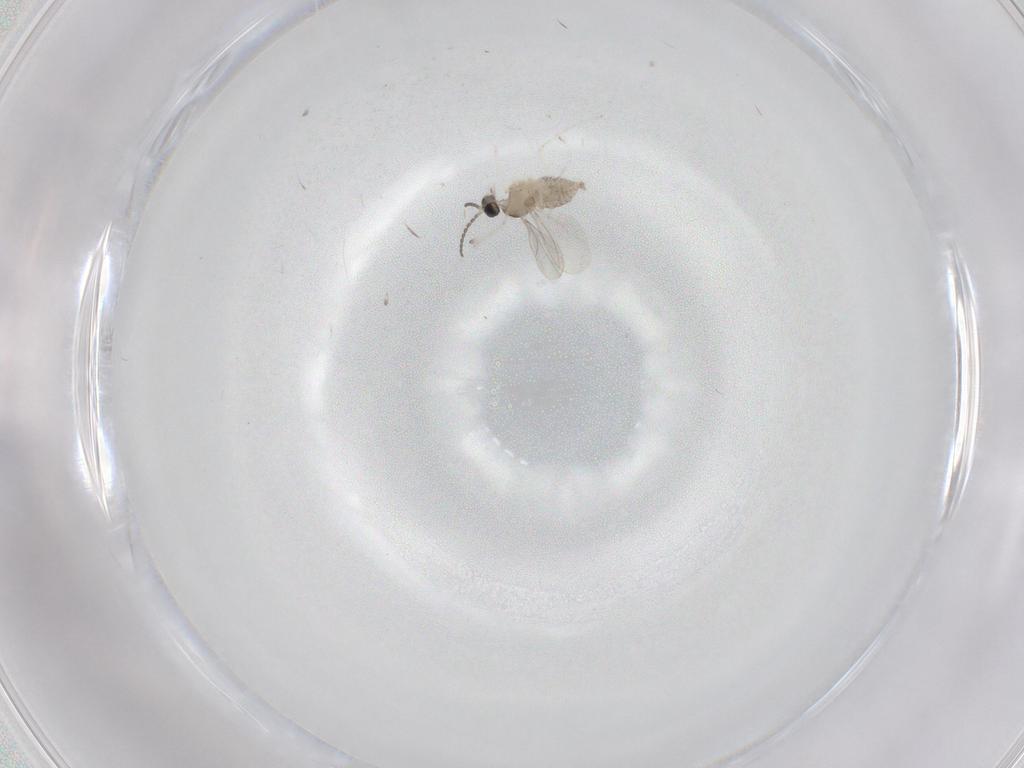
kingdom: Animalia
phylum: Arthropoda
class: Insecta
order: Diptera
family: Cecidomyiidae
